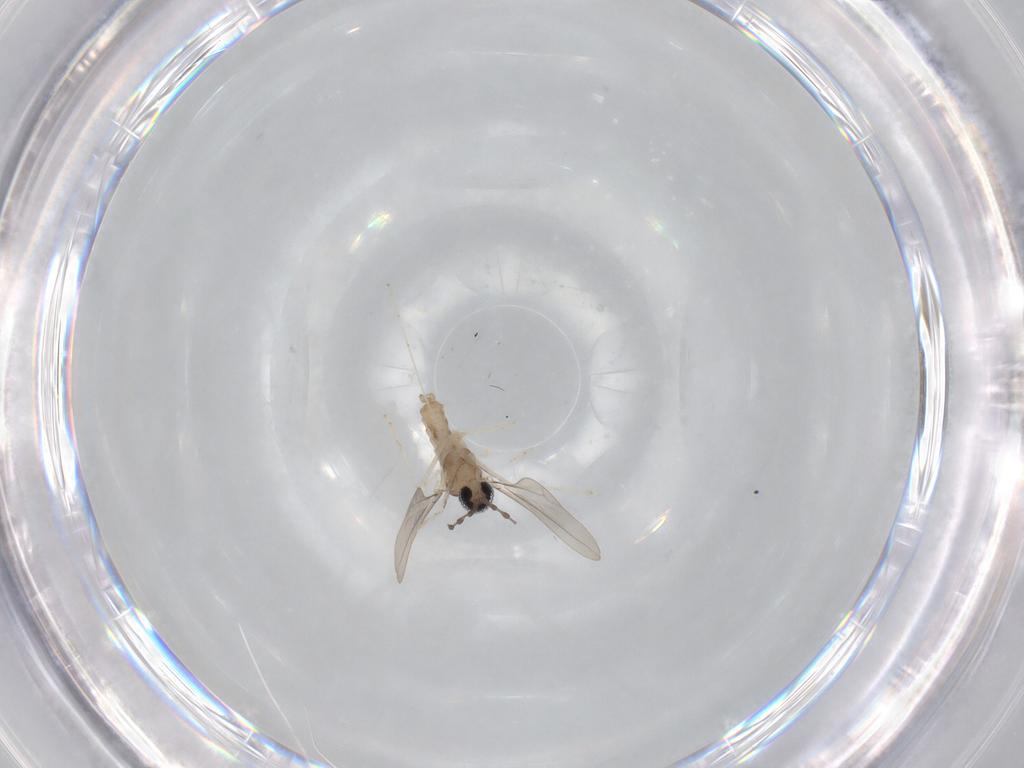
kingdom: Animalia
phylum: Arthropoda
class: Insecta
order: Diptera
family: Cecidomyiidae
